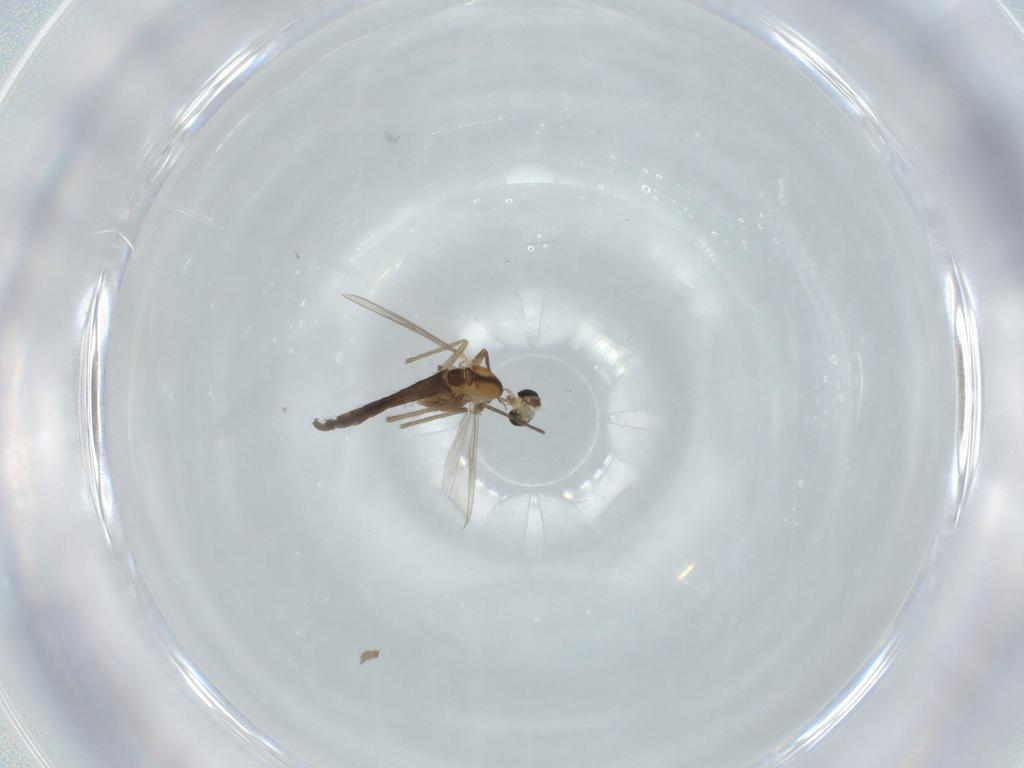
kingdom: Animalia
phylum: Arthropoda
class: Insecta
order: Diptera
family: Chironomidae
